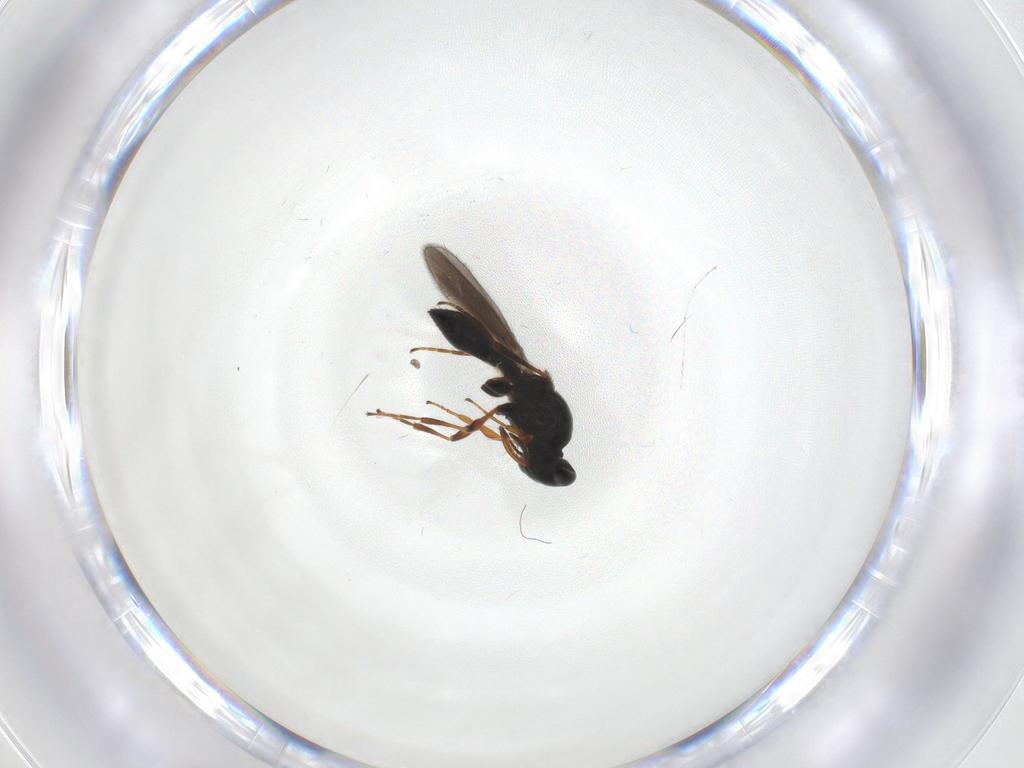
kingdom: Animalia
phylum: Arthropoda
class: Insecta
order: Hymenoptera
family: Platygastridae
